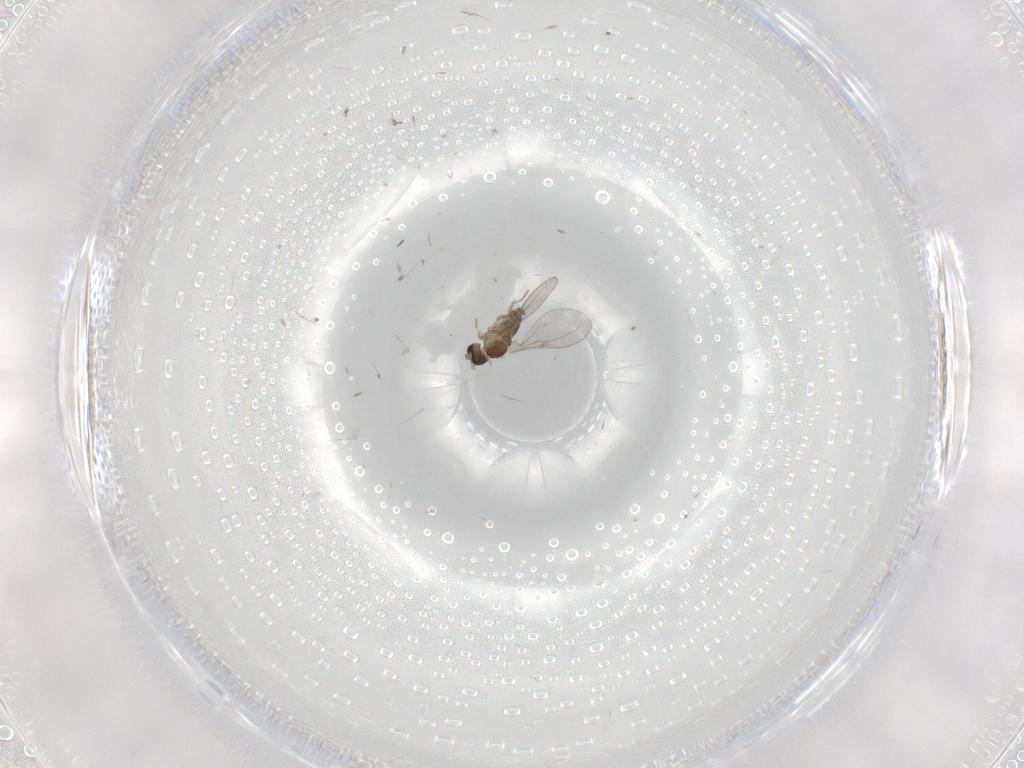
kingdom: Animalia
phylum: Arthropoda
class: Insecta
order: Diptera
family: Cecidomyiidae
